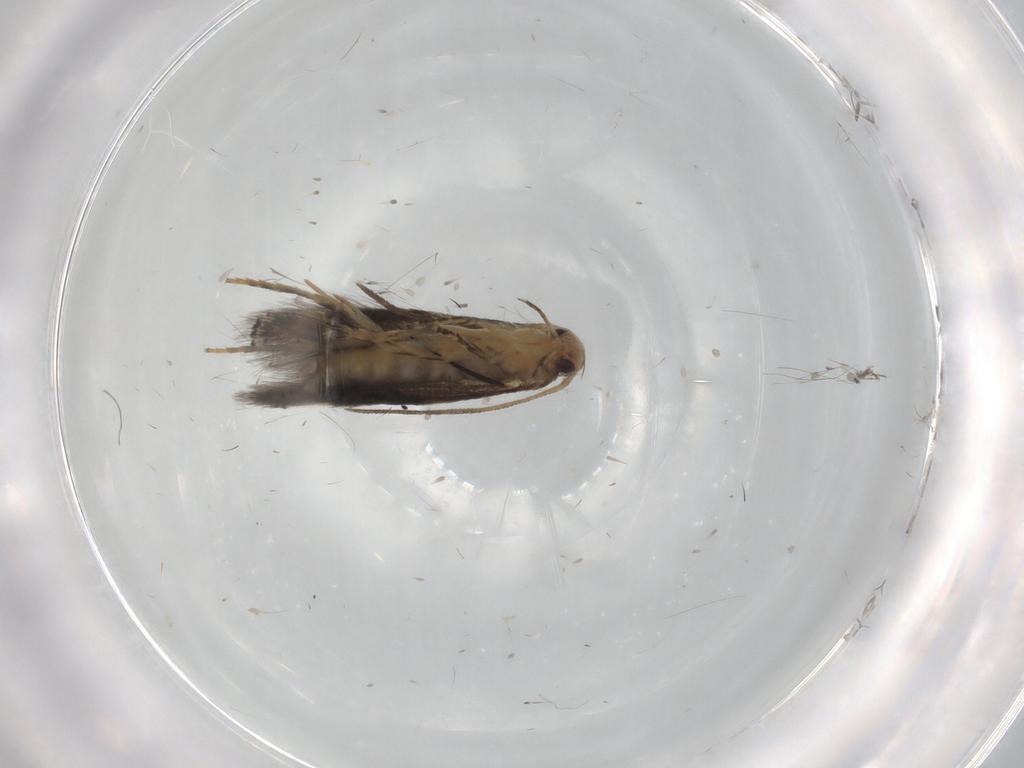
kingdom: Animalia
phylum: Arthropoda
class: Insecta
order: Lepidoptera
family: Elachistidae
